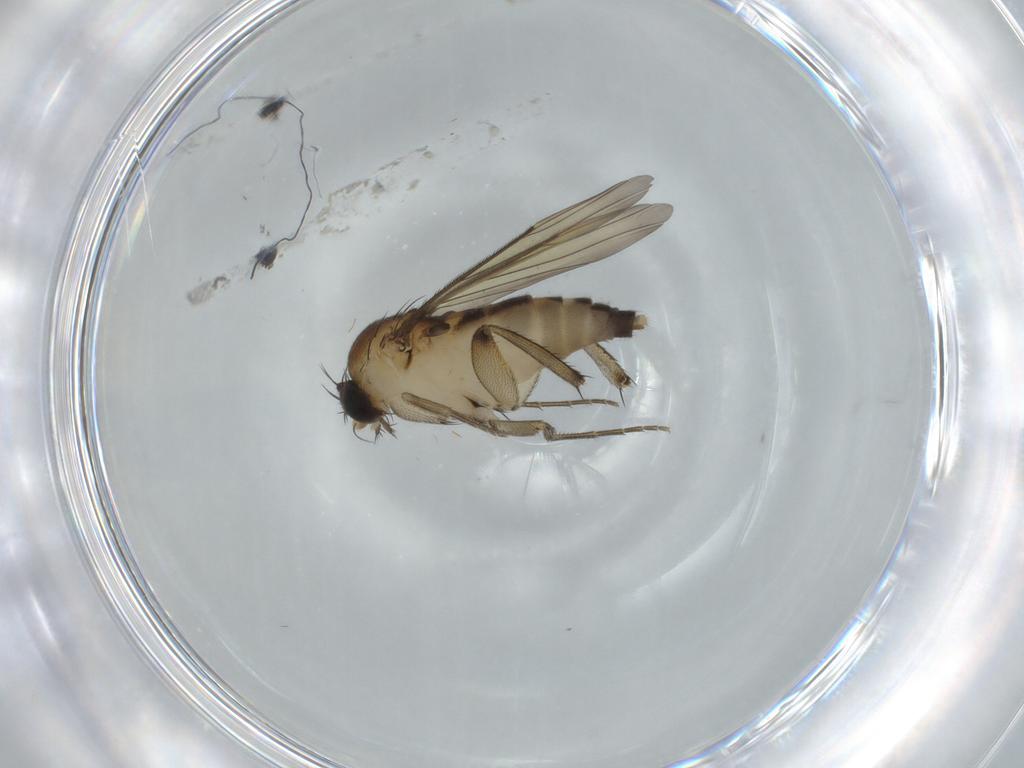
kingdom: Animalia
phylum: Arthropoda
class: Insecta
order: Diptera
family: Phoridae
